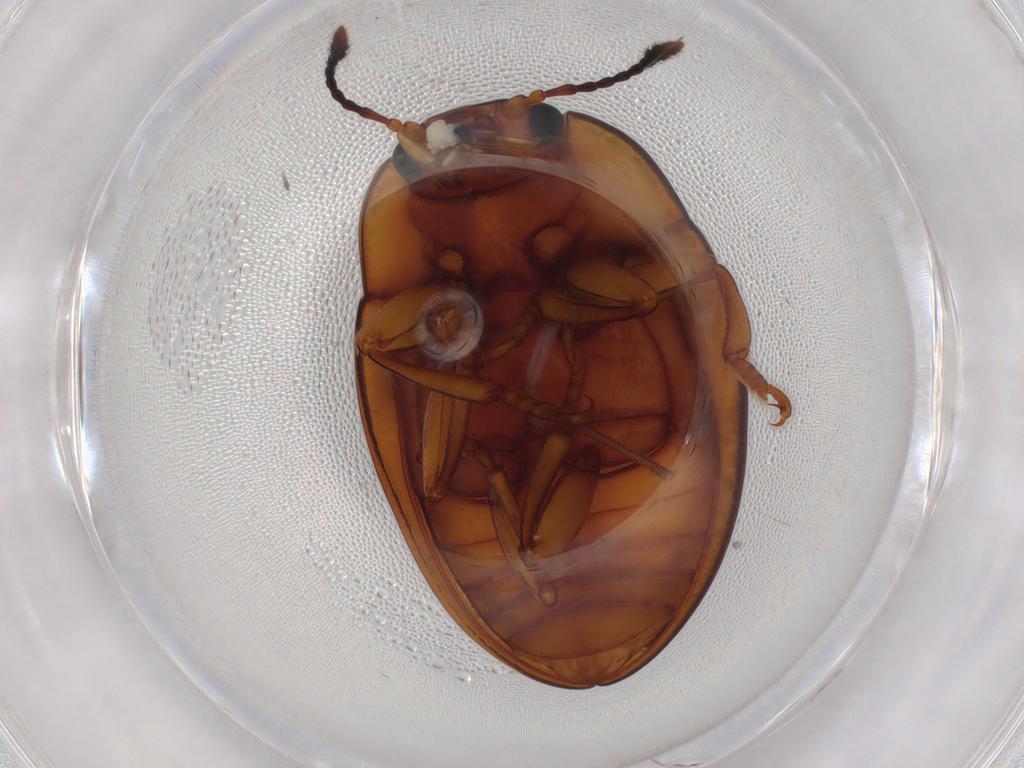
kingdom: Animalia
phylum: Arthropoda
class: Insecta
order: Coleoptera
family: Erotylidae
